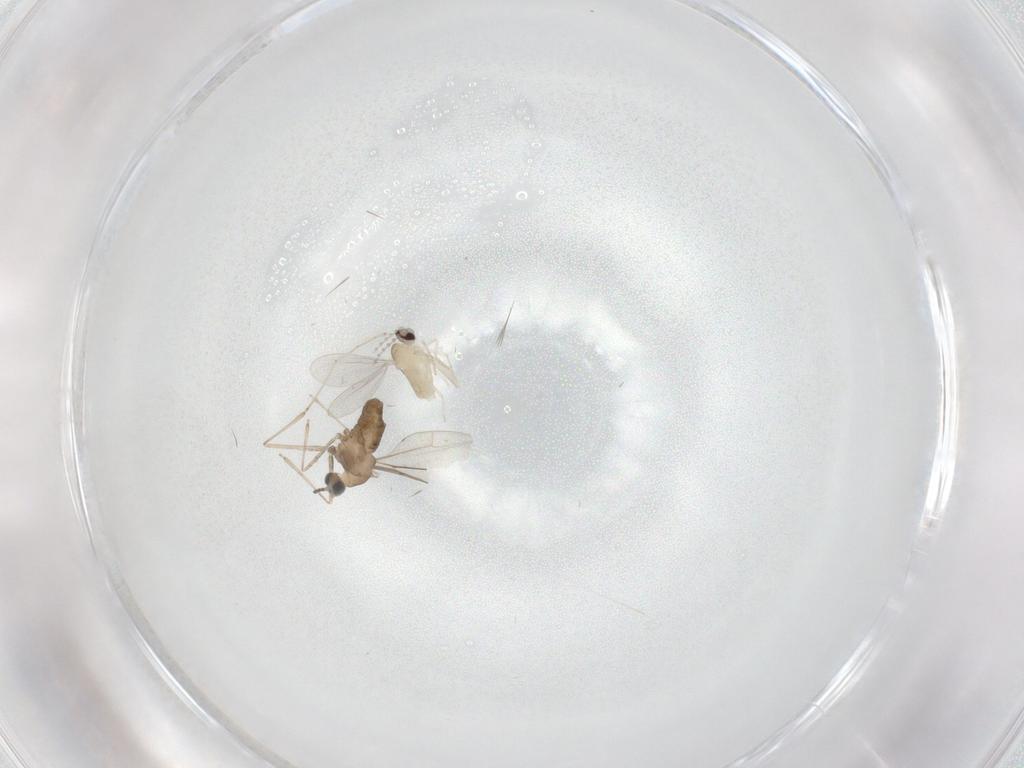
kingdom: Animalia
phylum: Arthropoda
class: Insecta
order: Diptera
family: Cecidomyiidae
